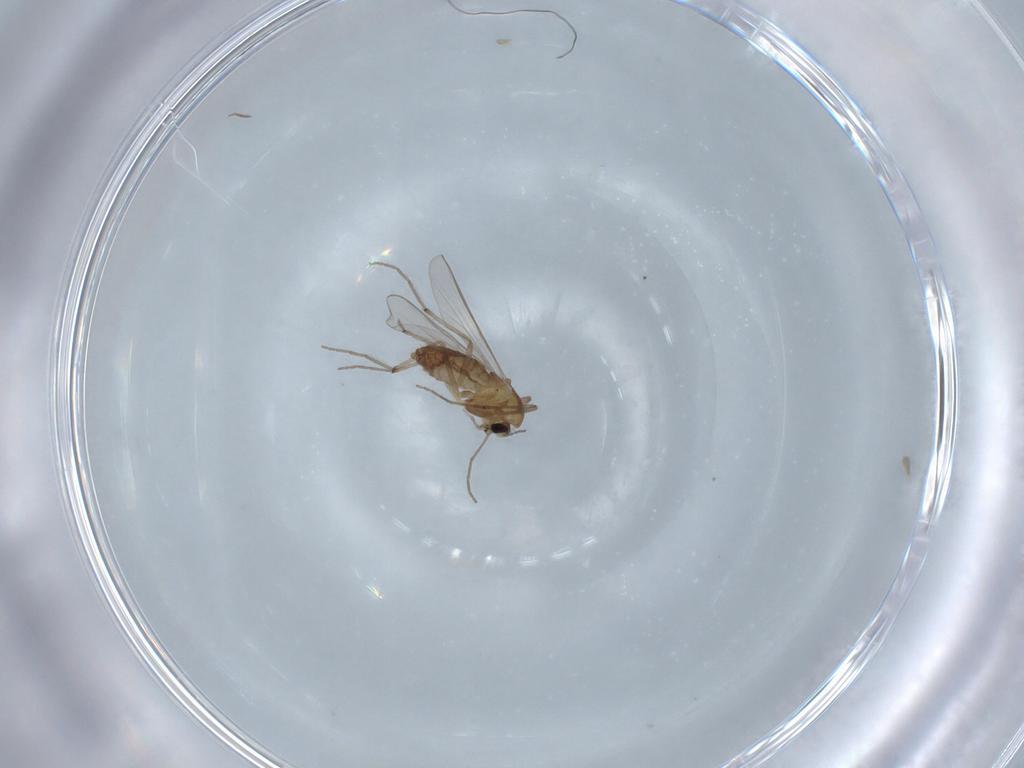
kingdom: Animalia
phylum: Arthropoda
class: Insecta
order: Diptera
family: Chironomidae
